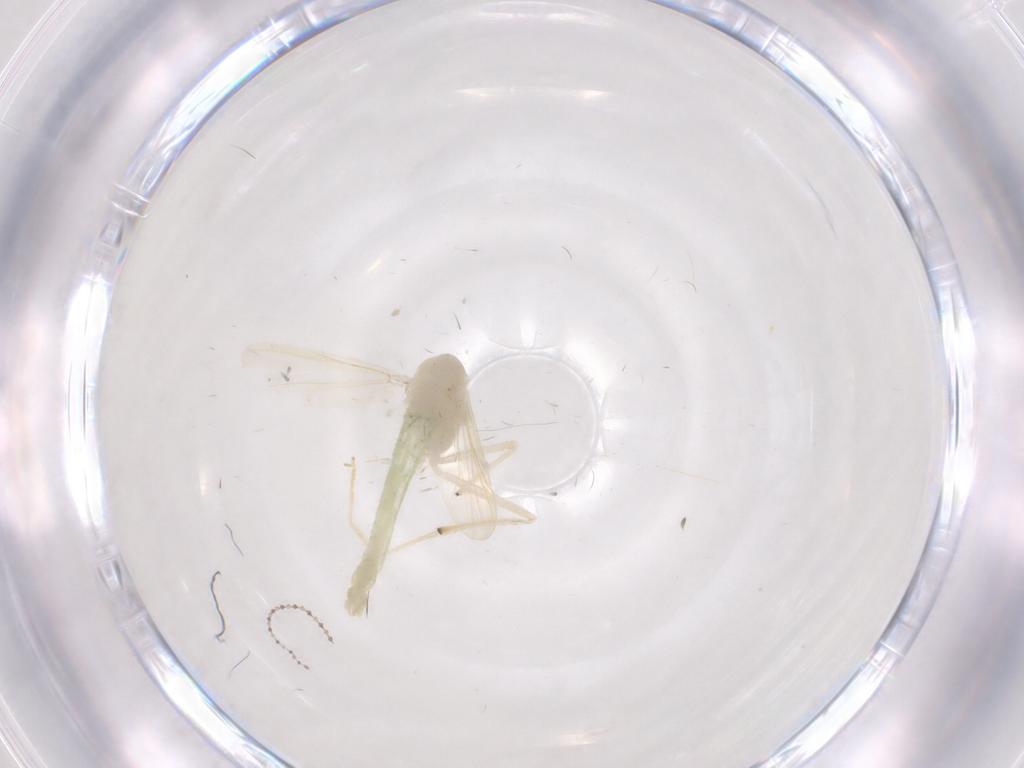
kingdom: Animalia
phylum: Arthropoda
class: Insecta
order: Diptera
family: Chironomidae
